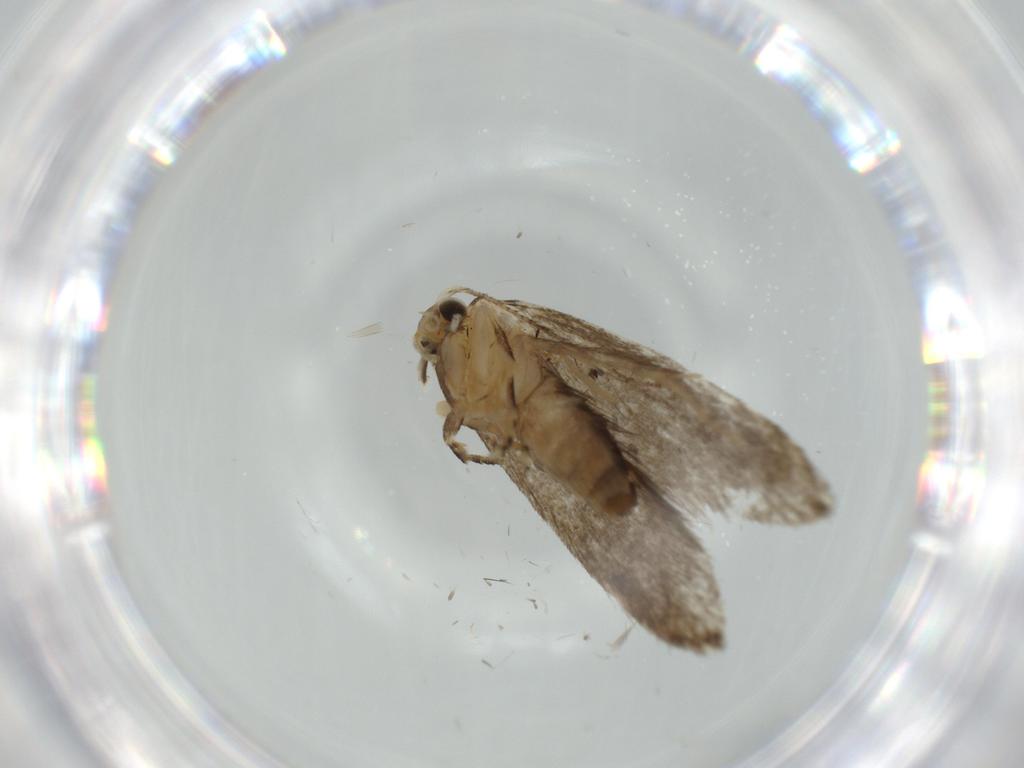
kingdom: Animalia
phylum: Arthropoda
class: Insecta
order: Lepidoptera
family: Tineidae
